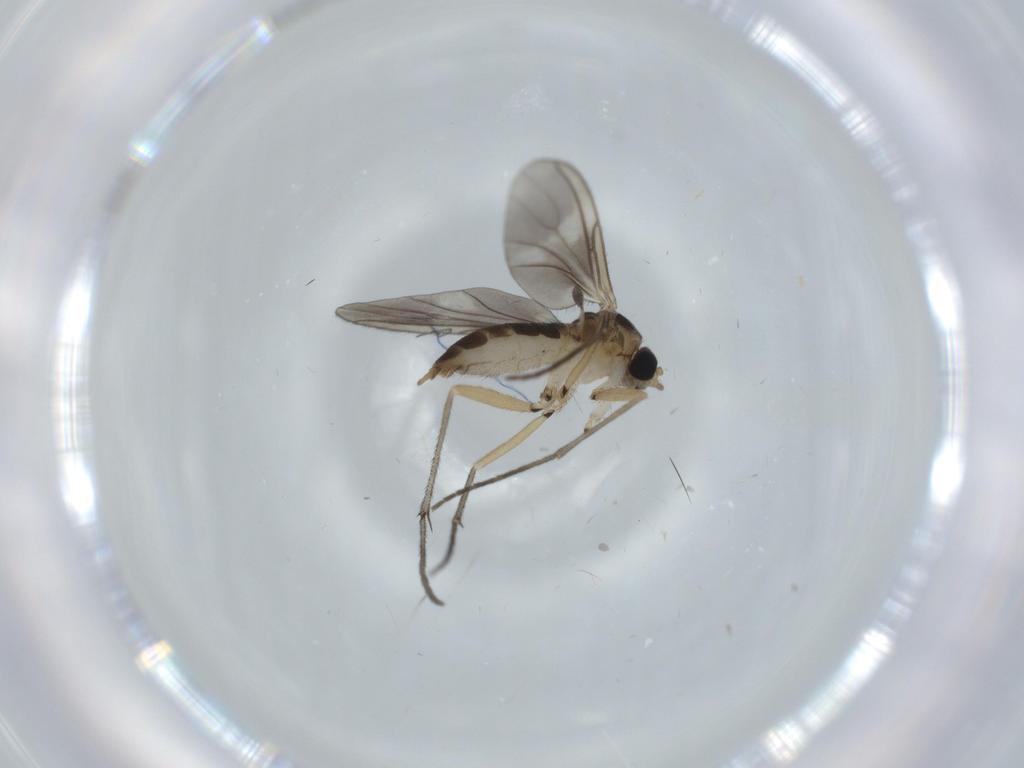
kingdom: Animalia
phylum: Arthropoda
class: Insecta
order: Diptera
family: Sciaridae
